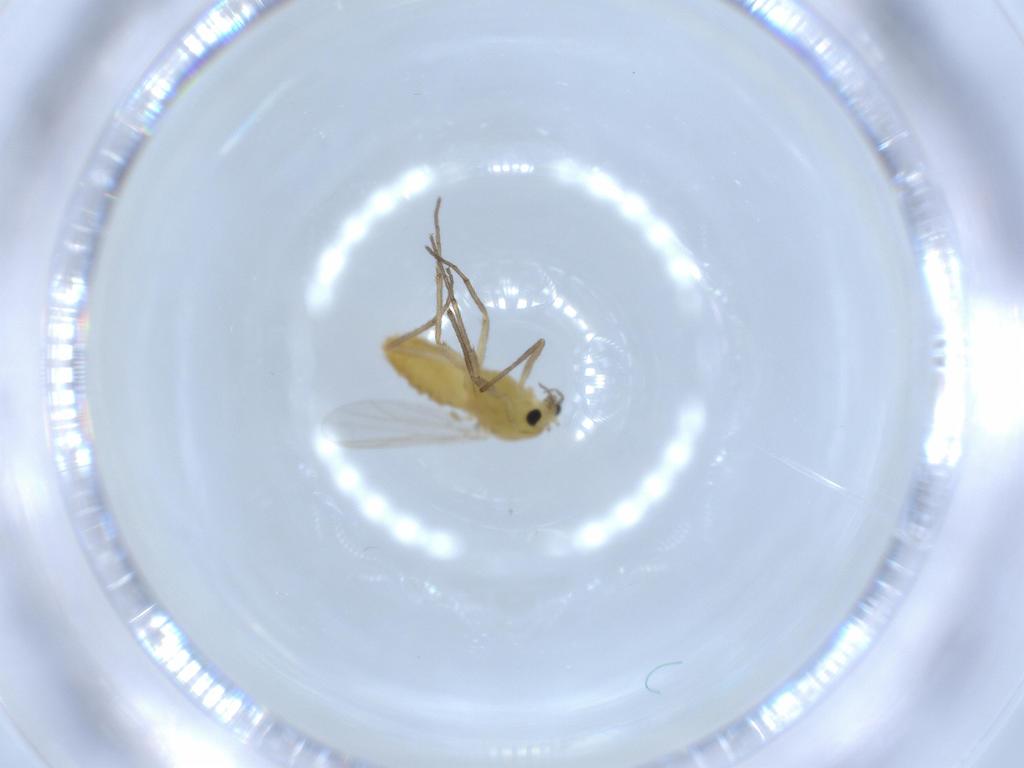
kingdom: Animalia
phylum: Arthropoda
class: Insecta
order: Diptera
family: Chironomidae
